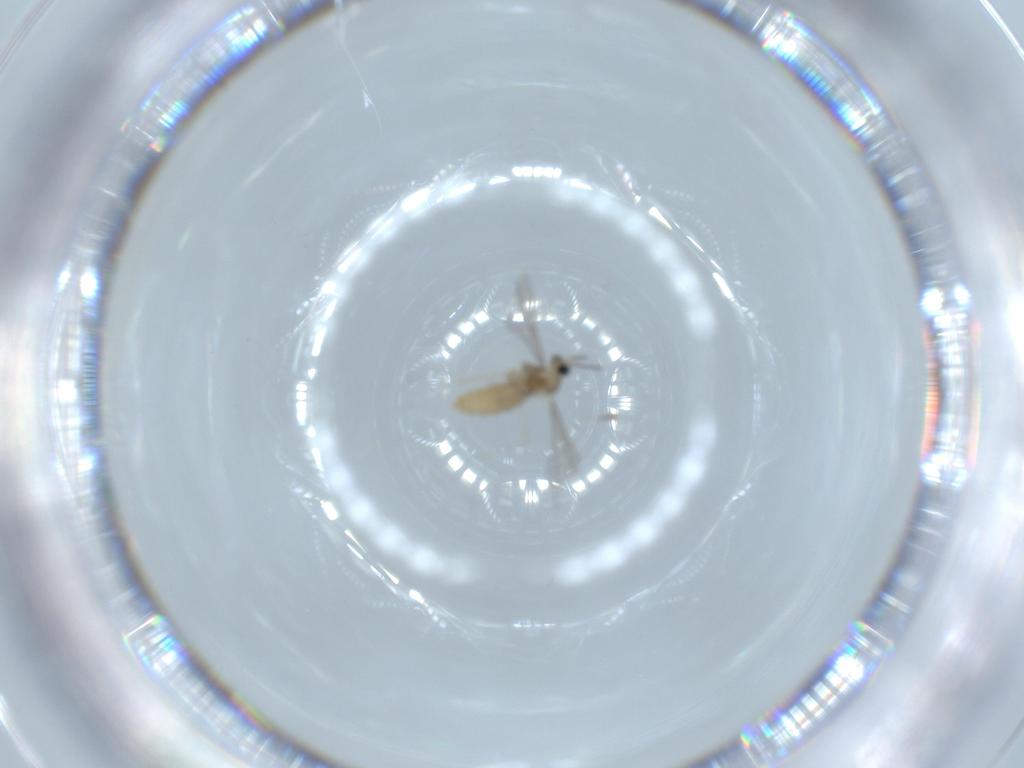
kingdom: Animalia
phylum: Arthropoda
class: Insecta
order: Diptera
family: Cecidomyiidae
